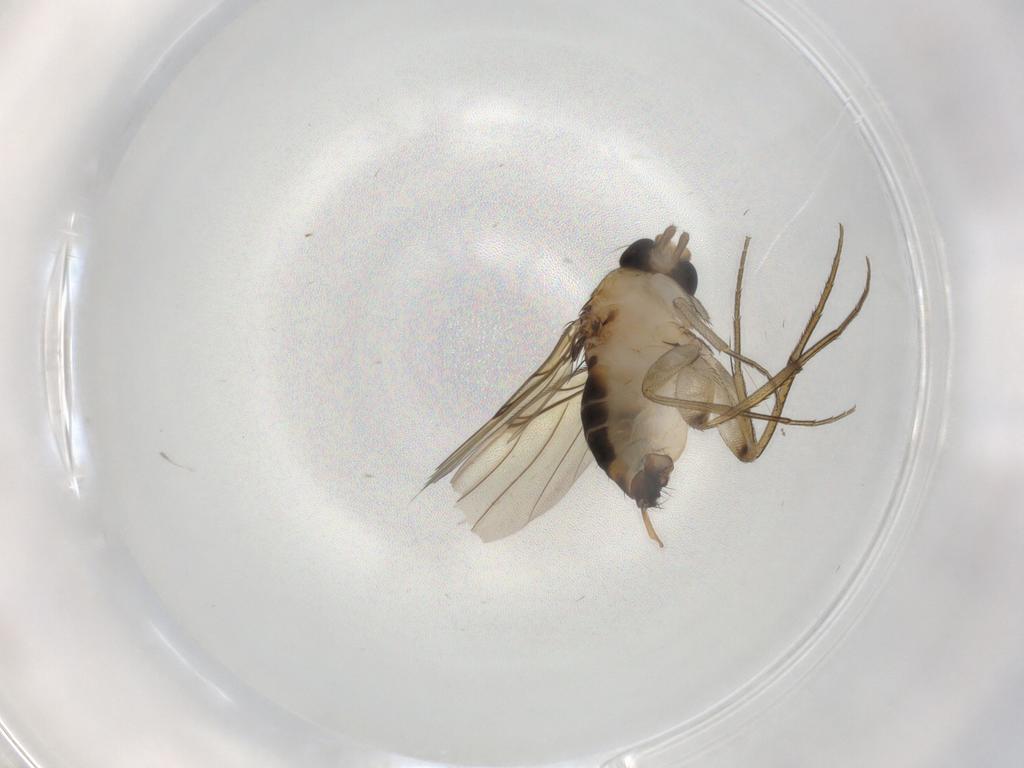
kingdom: Animalia
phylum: Arthropoda
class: Insecta
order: Diptera
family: Phoridae
